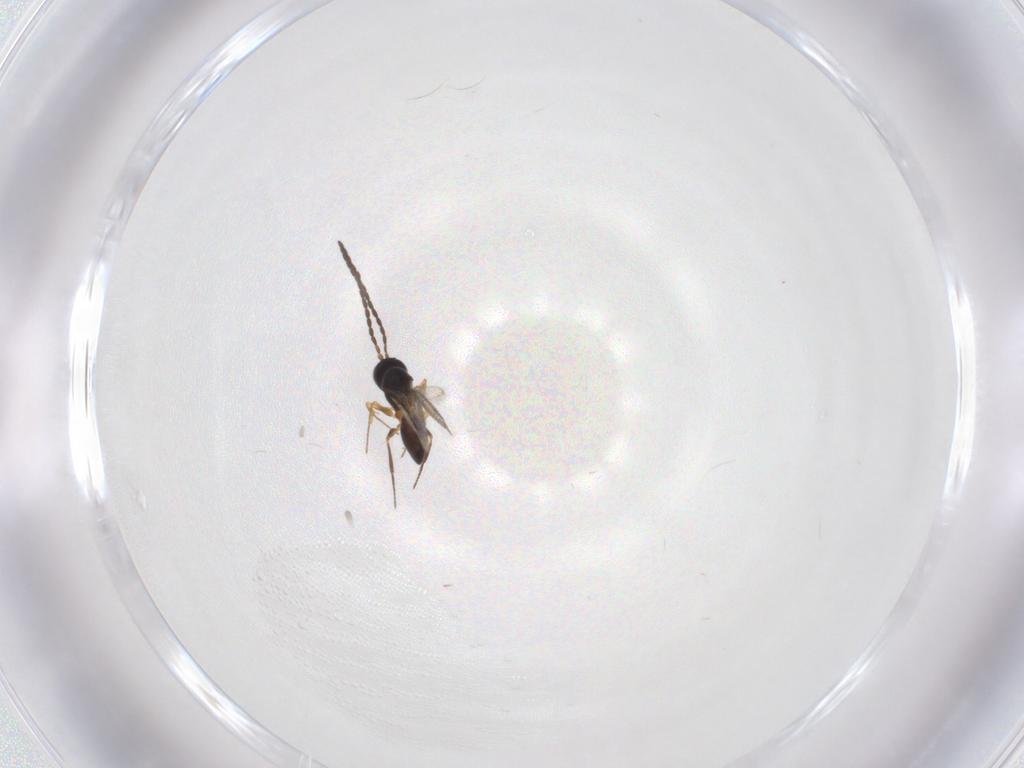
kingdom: Animalia
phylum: Arthropoda
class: Insecta
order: Hymenoptera
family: Figitidae
